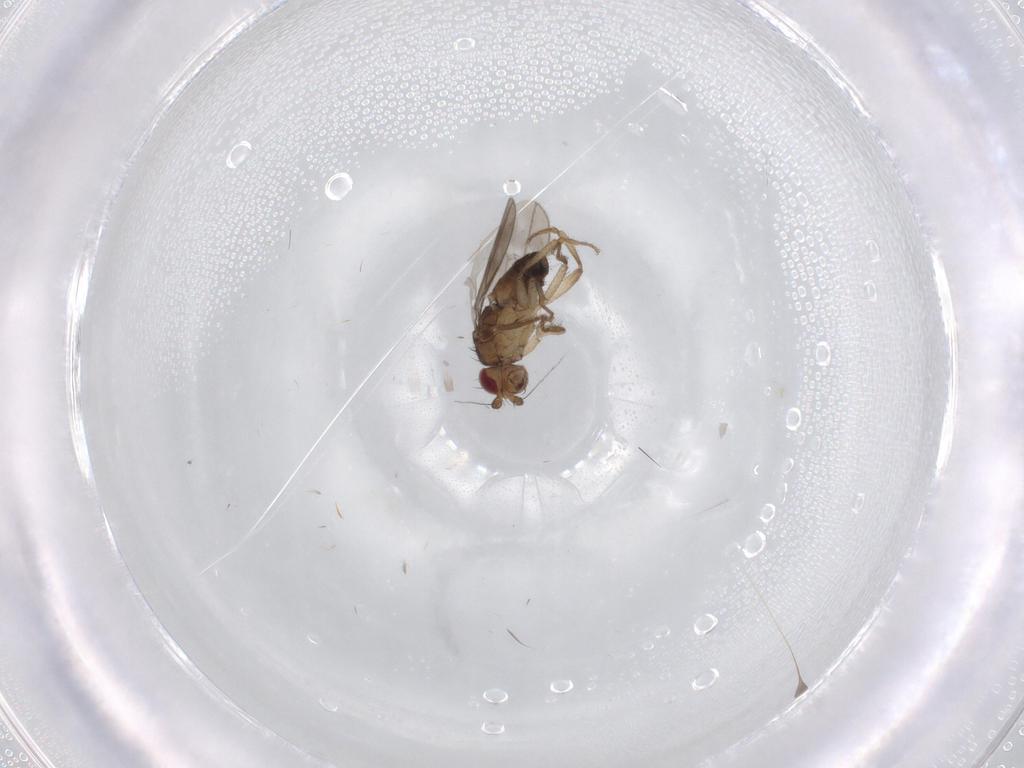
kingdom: Animalia
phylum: Arthropoda
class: Insecta
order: Diptera
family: Sphaeroceridae
